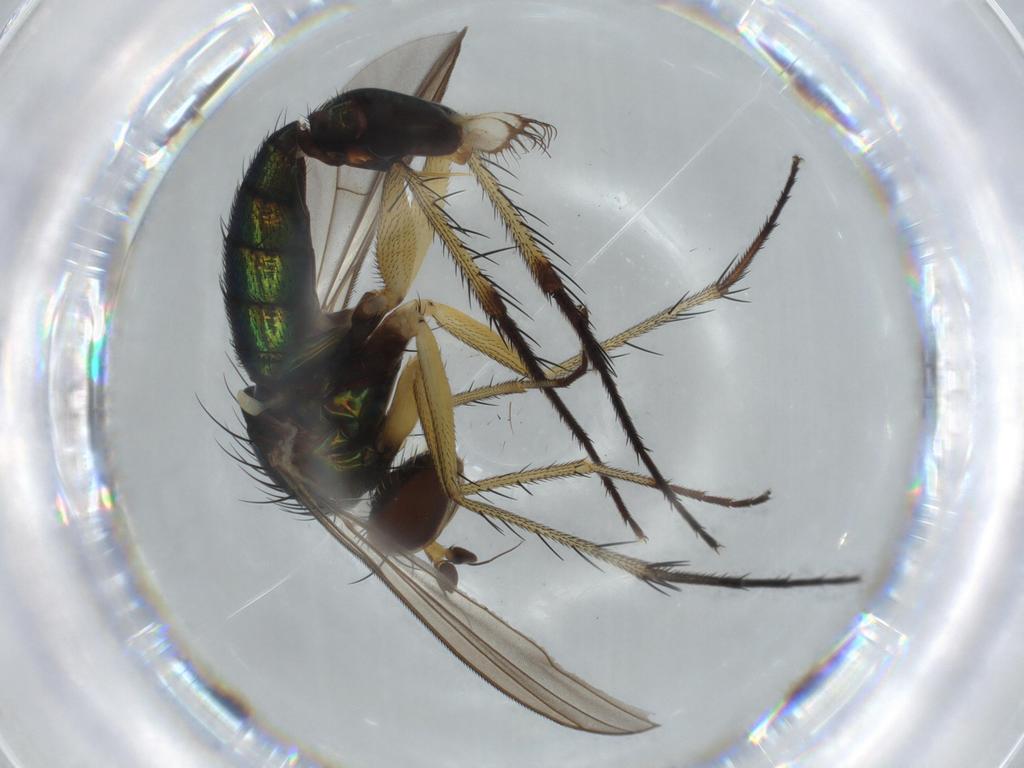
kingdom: Animalia
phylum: Arthropoda
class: Insecta
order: Diptera
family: Dolichopodidae
